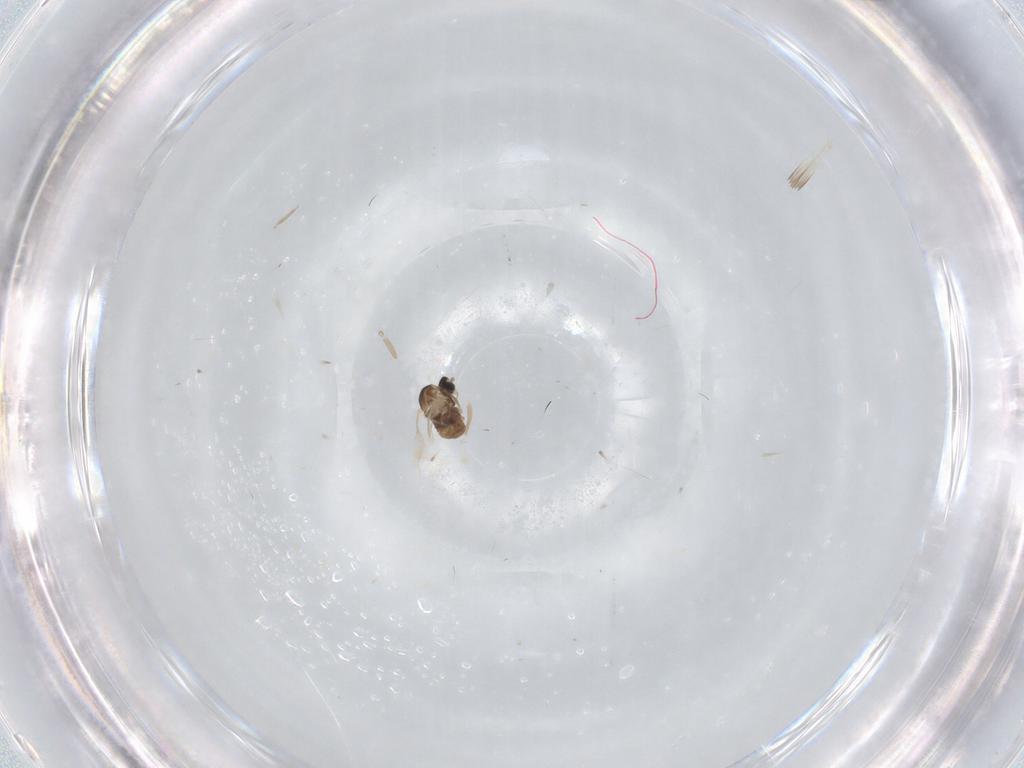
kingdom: Animalia
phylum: Arthropoda
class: Insecta
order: Diptera
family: Cecidomyiidae
